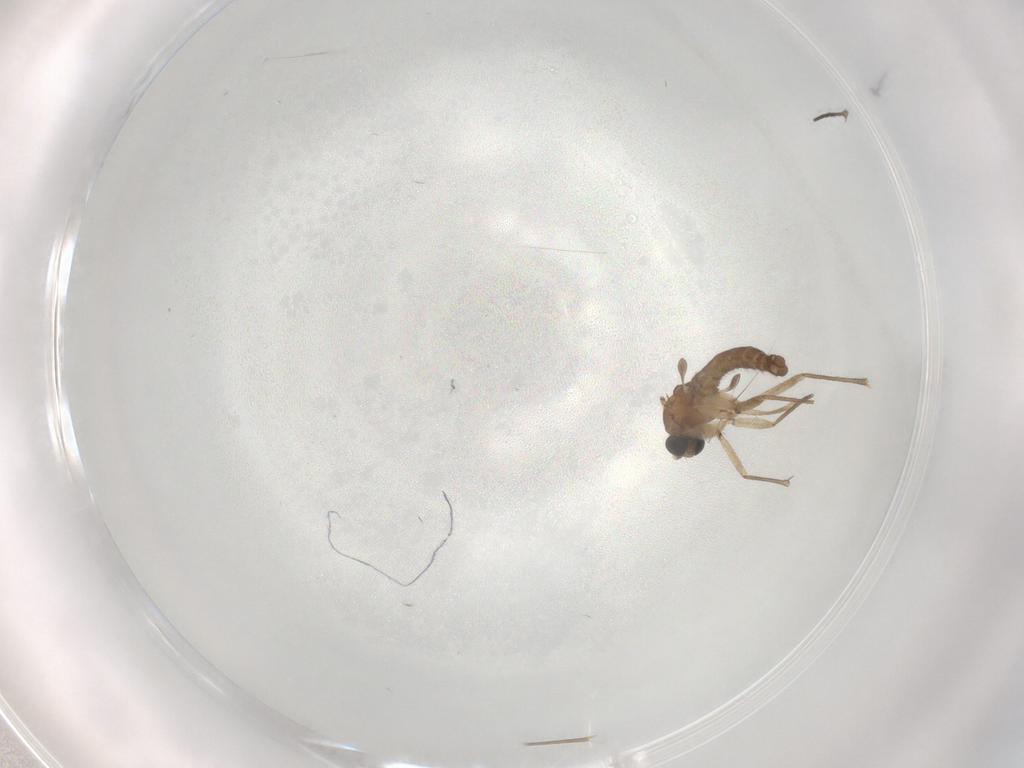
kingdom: Animalia
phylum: Arthropoda
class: Insecta
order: Diptera
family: Sciaridae
